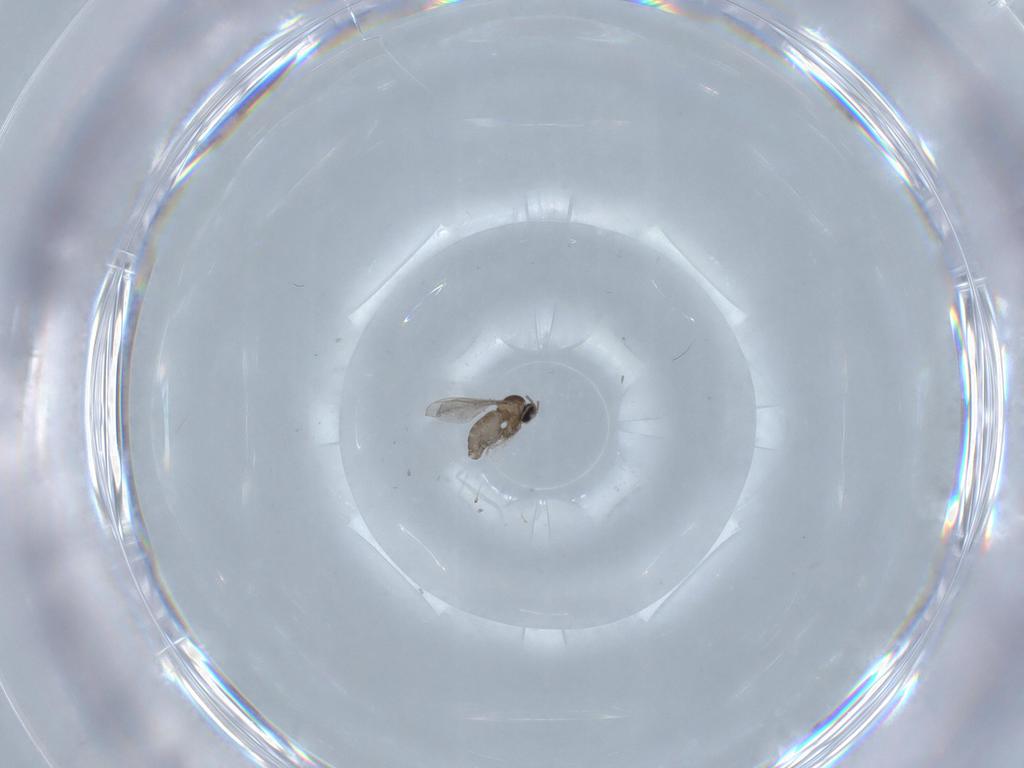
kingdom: Animalia
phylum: Arthropoda
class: Insecta
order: Diptera
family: Cecidomyiidae
